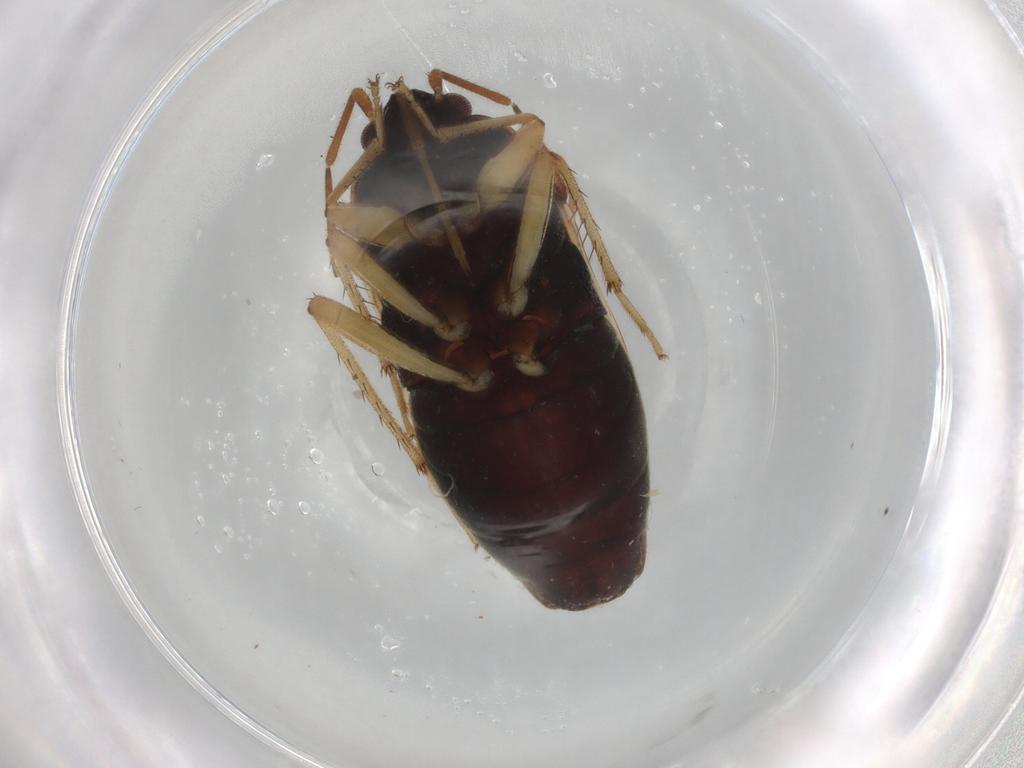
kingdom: Animalia
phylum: Arthropoda
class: Insecta
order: Hemiptera
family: Rhyparochromidae
